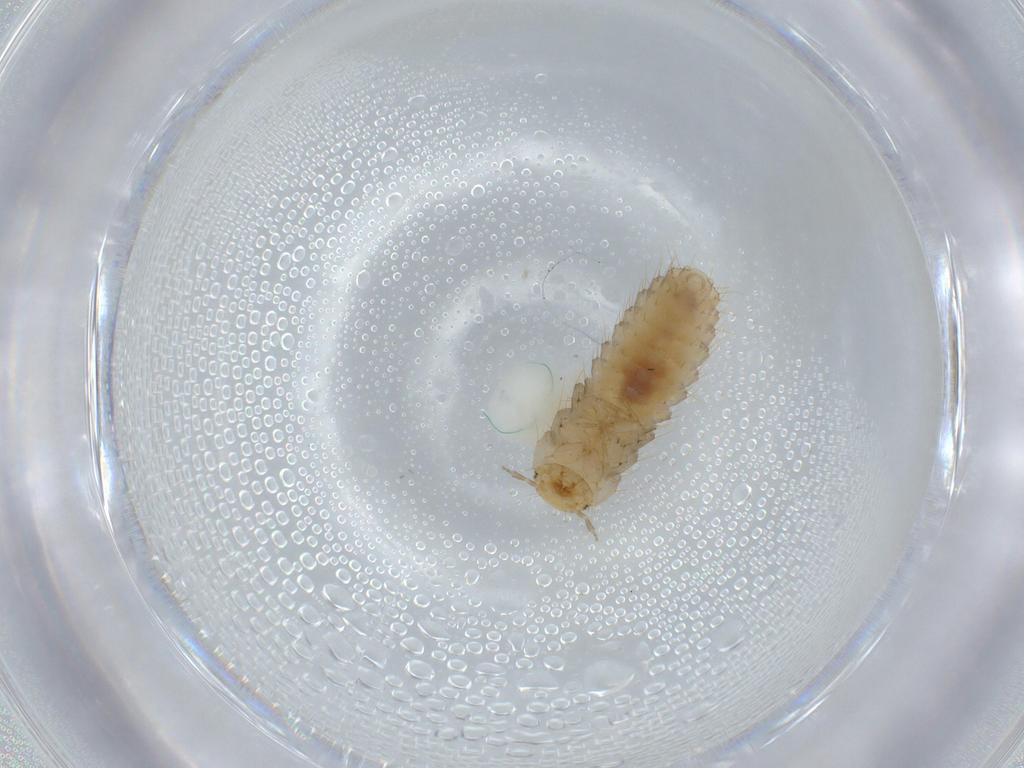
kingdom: Animalia
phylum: Arthropoda
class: Insecta
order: Coleoptera
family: Staphylinidae
